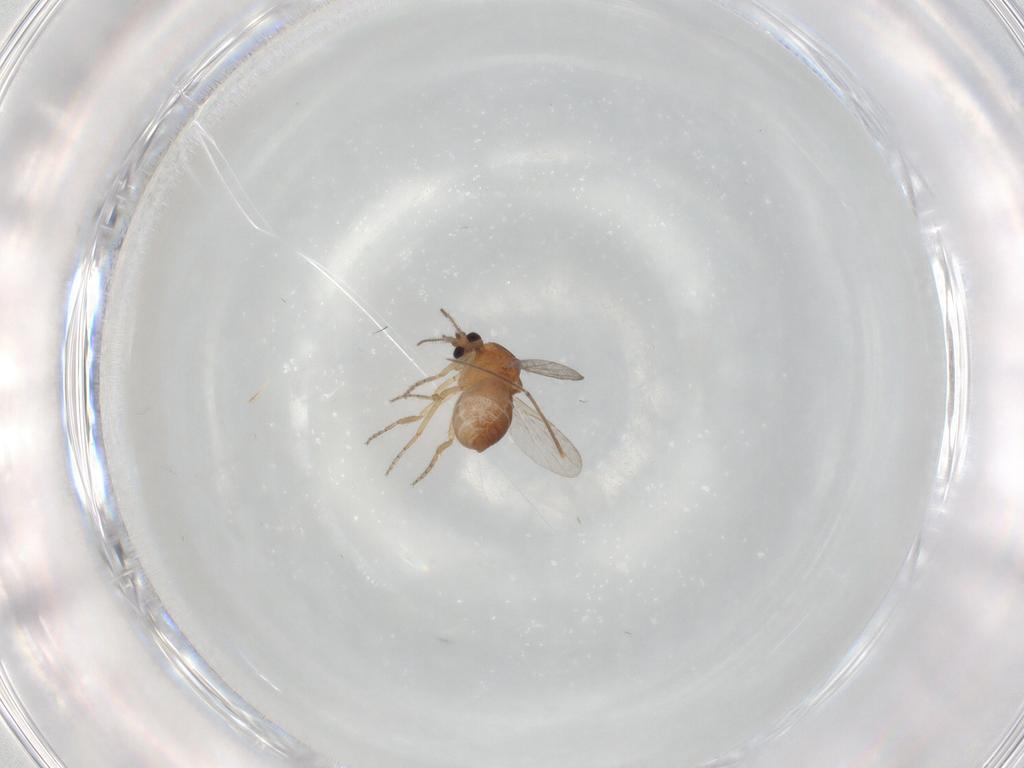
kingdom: Animalia
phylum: Arthropoda
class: Insecta
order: Diptera
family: Ceratopogonidae
